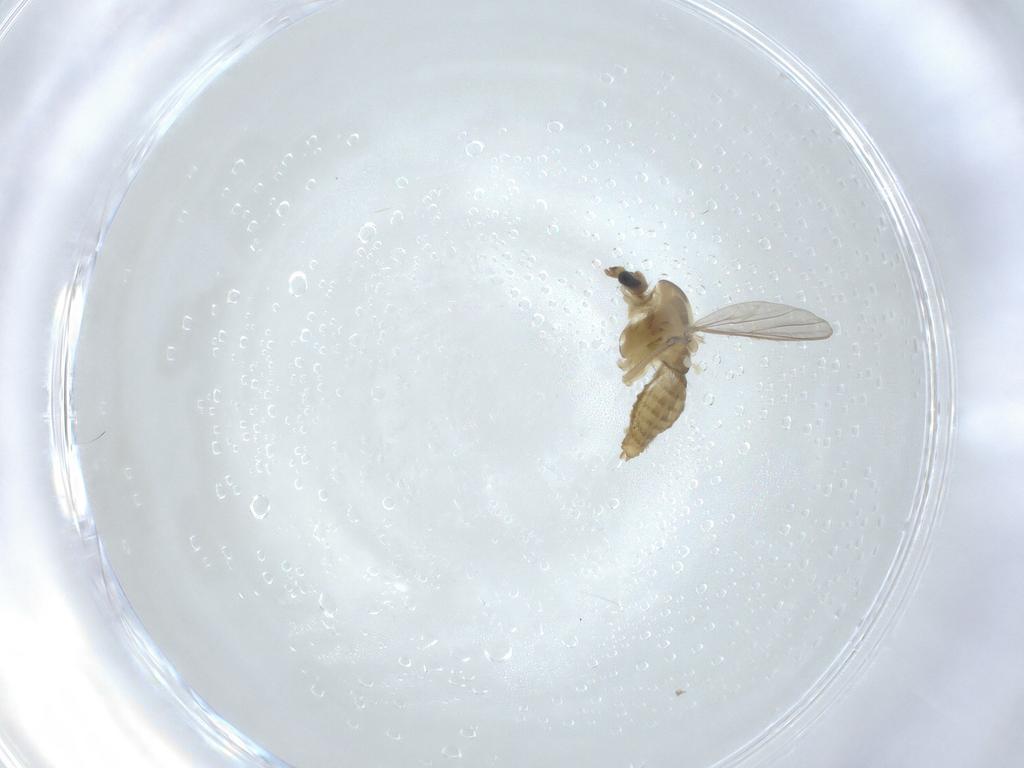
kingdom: Animalia
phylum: Arthropoda
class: Insecta
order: Diptera
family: Chironomidae
